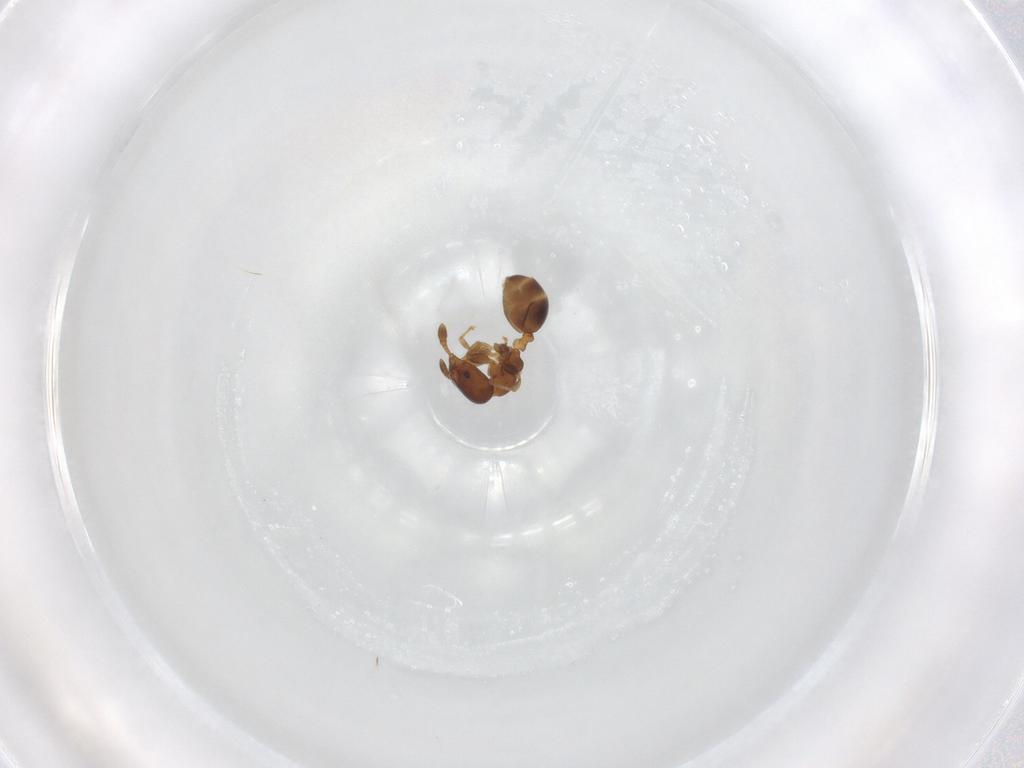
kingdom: Animalia
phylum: Arthropoda
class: Insecta
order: Hymenoptera
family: Formicidae
